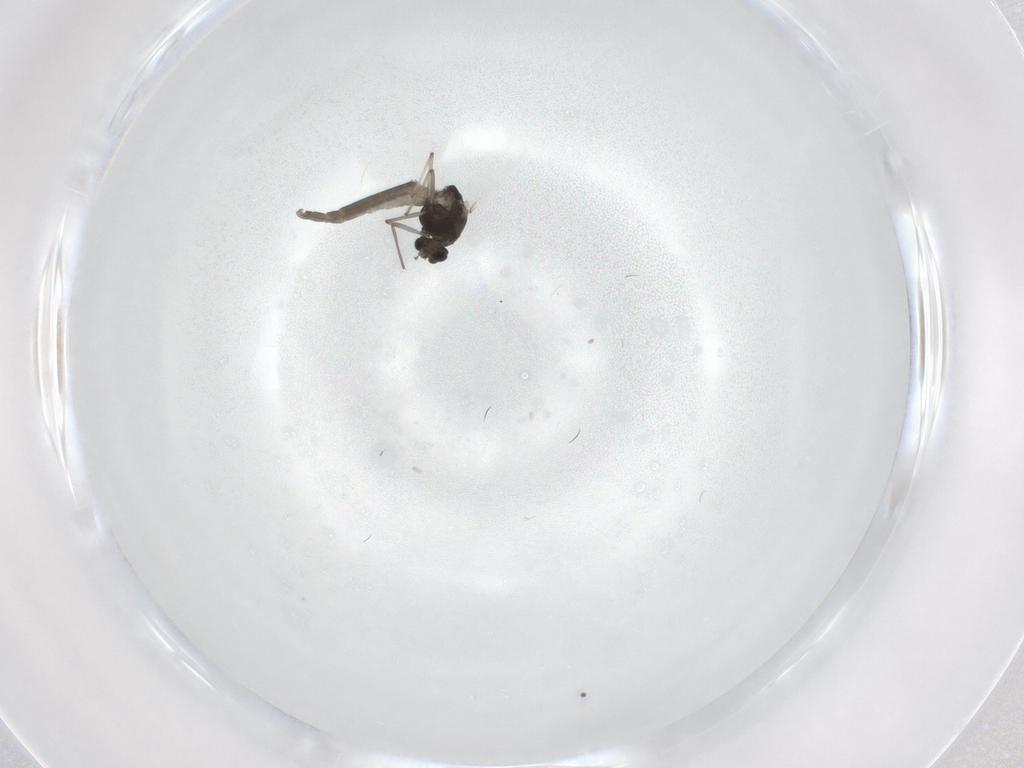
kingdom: Animalia
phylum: Arthropoda
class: Insecta
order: Diptera
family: Chironomidae
